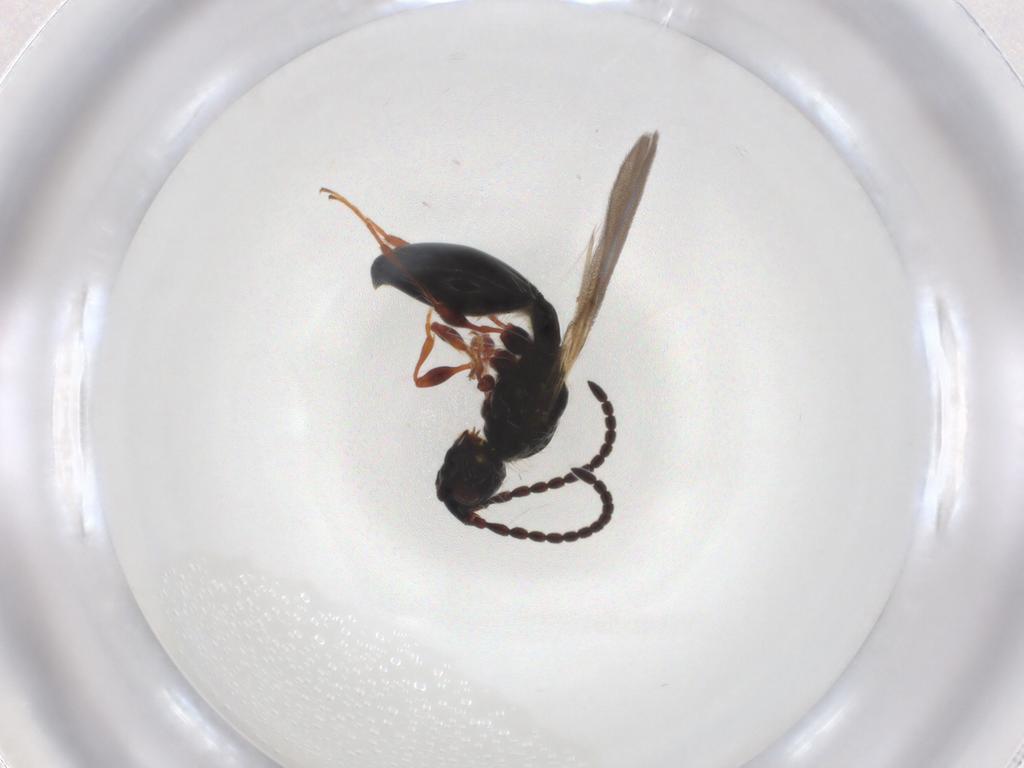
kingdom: Animalia
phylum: Arthropoda
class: Insecta
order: Hymenoptera
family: Diapriidae
